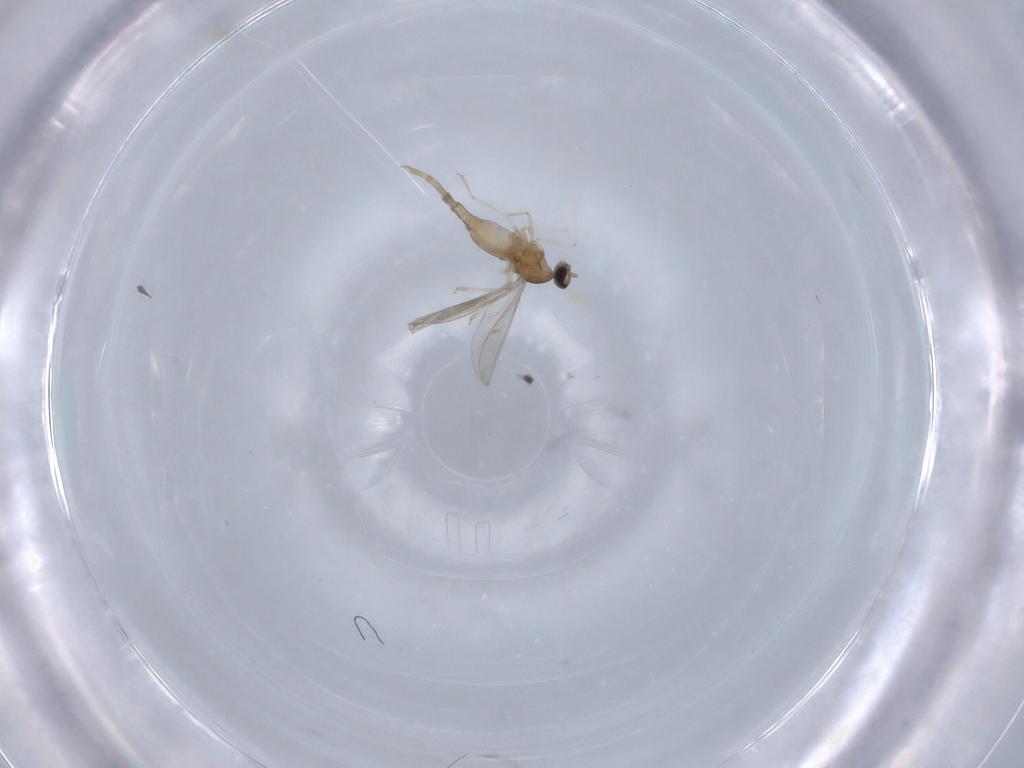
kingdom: Animalia
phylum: Arthropoda
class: Insecta
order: Diptera
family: Cecidomyiidae
